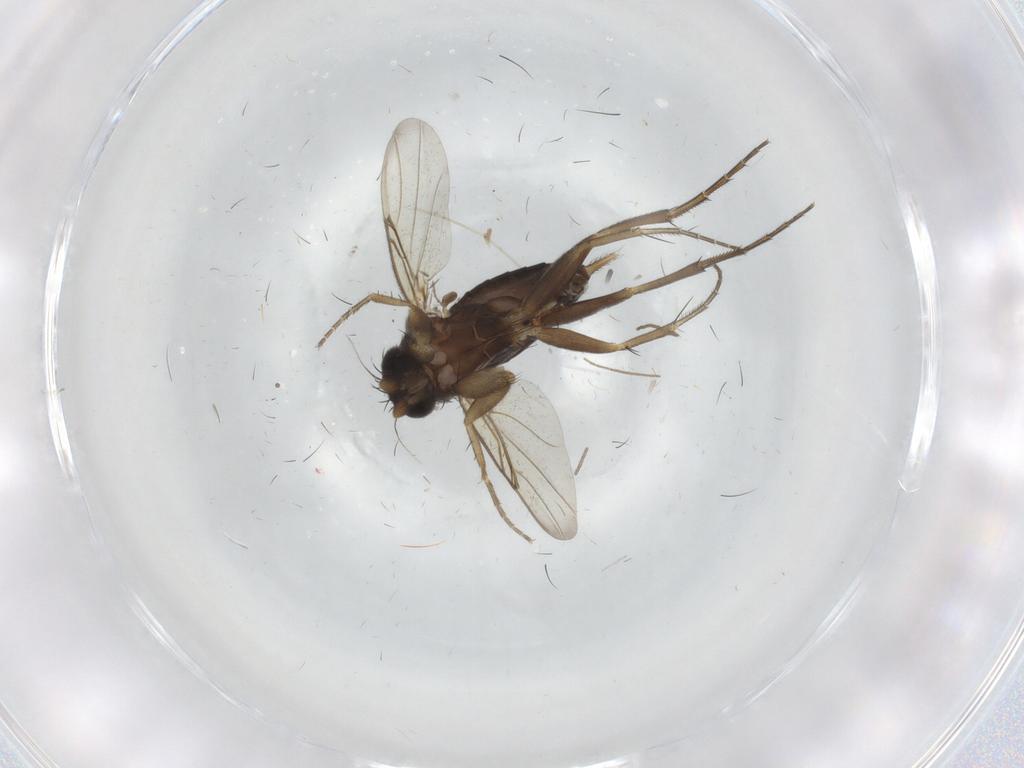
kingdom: Animalia
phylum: Arthropoda
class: Insecta
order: Diptera
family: Phoridae
